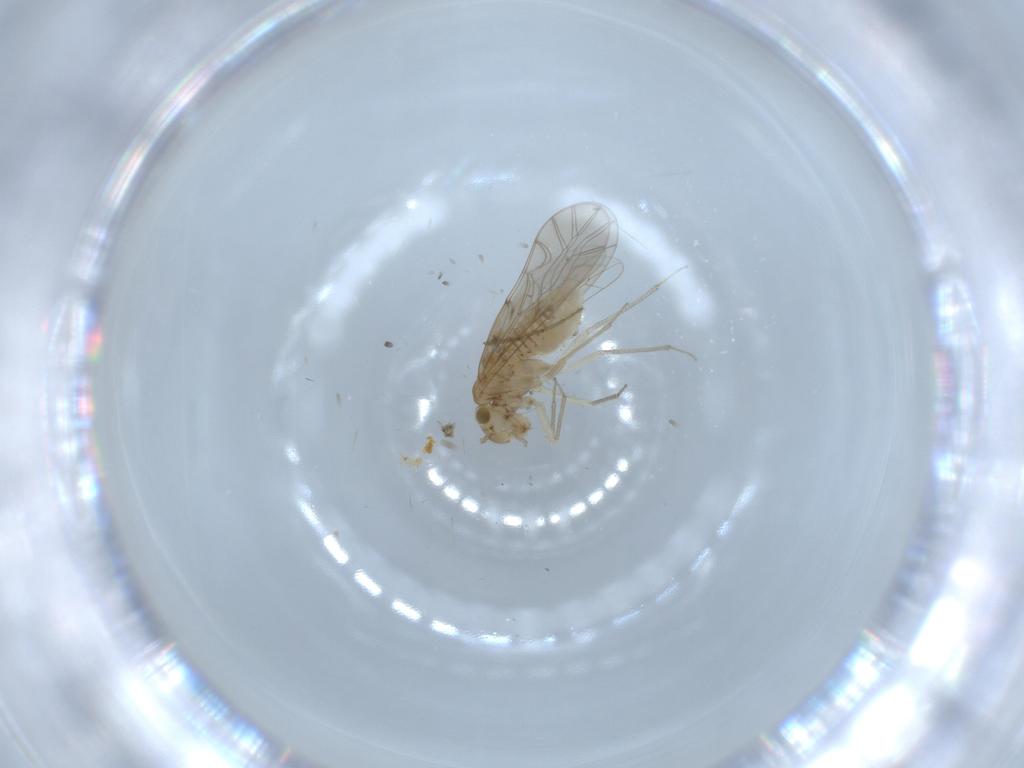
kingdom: Animalia
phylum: Arthropoda
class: Insecta
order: Psocodea
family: Lachesillidae
